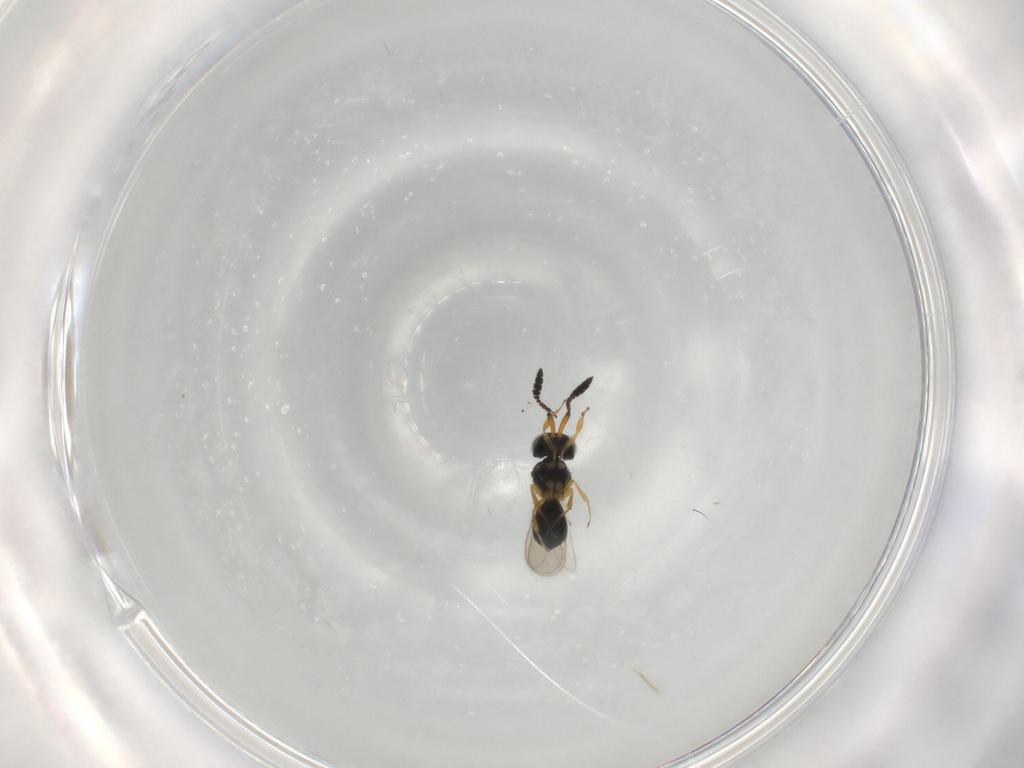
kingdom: Animalia
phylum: Arthropoda
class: Insecta
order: Hymenoptera
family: Scelionidae
